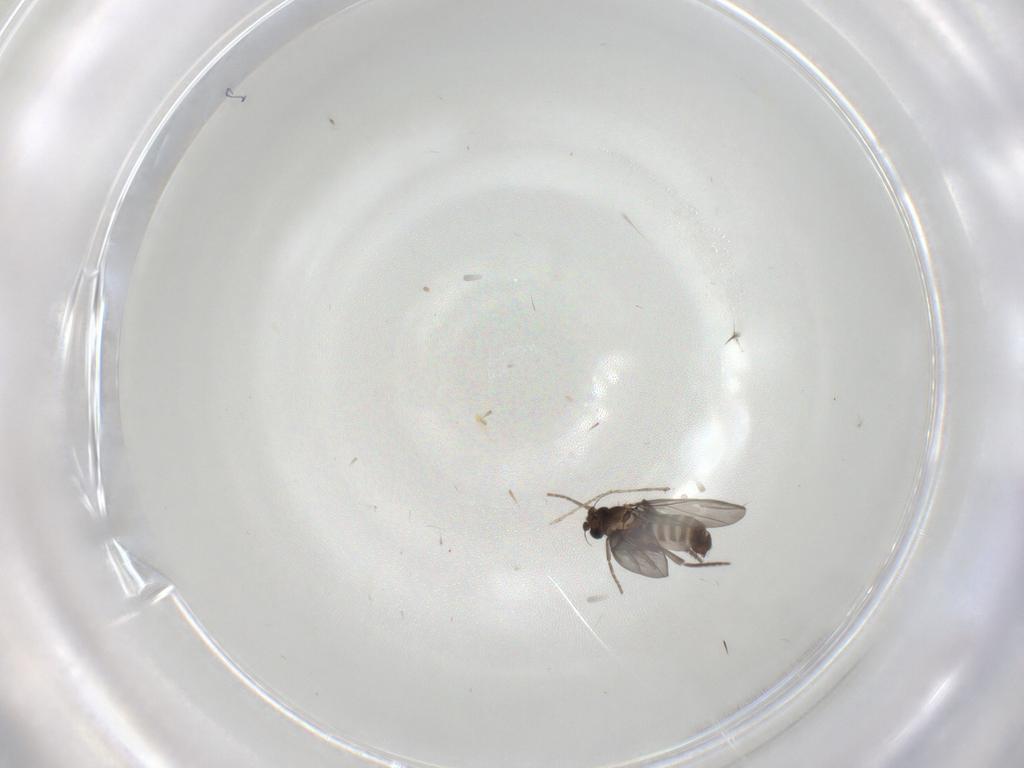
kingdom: Animalia
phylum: Arthropoda
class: Insecta
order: Diptera
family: Phoridae
